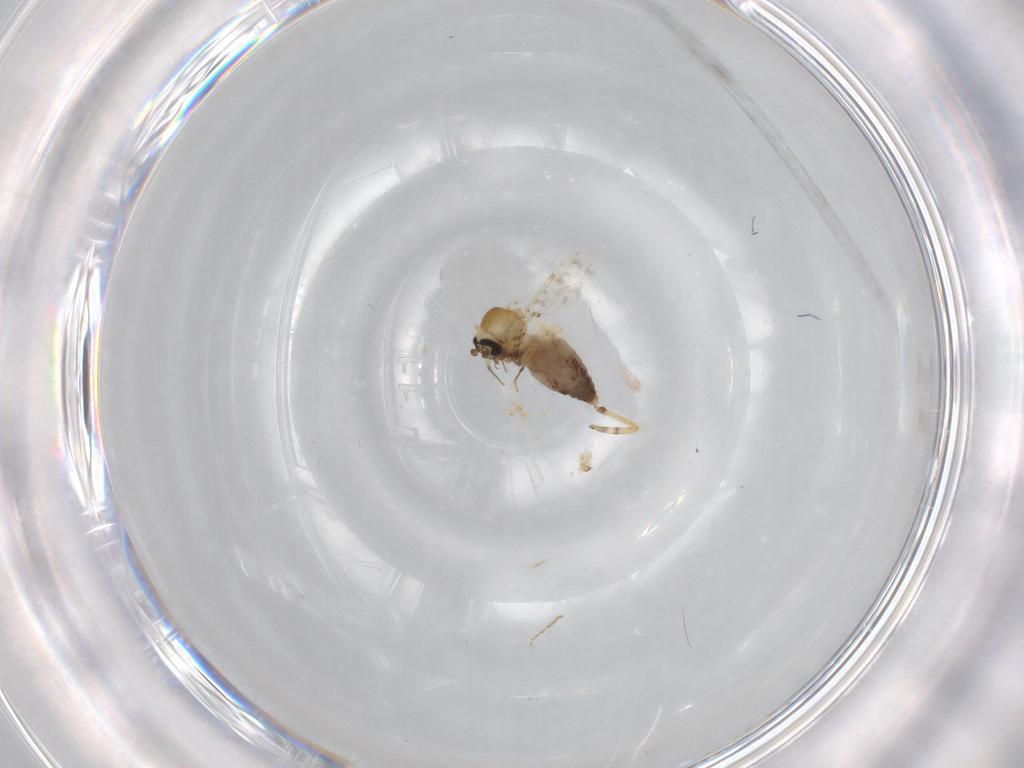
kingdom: Animalia
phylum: Arthropoda
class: Insecta
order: Diptera
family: Ceratopogonidae
